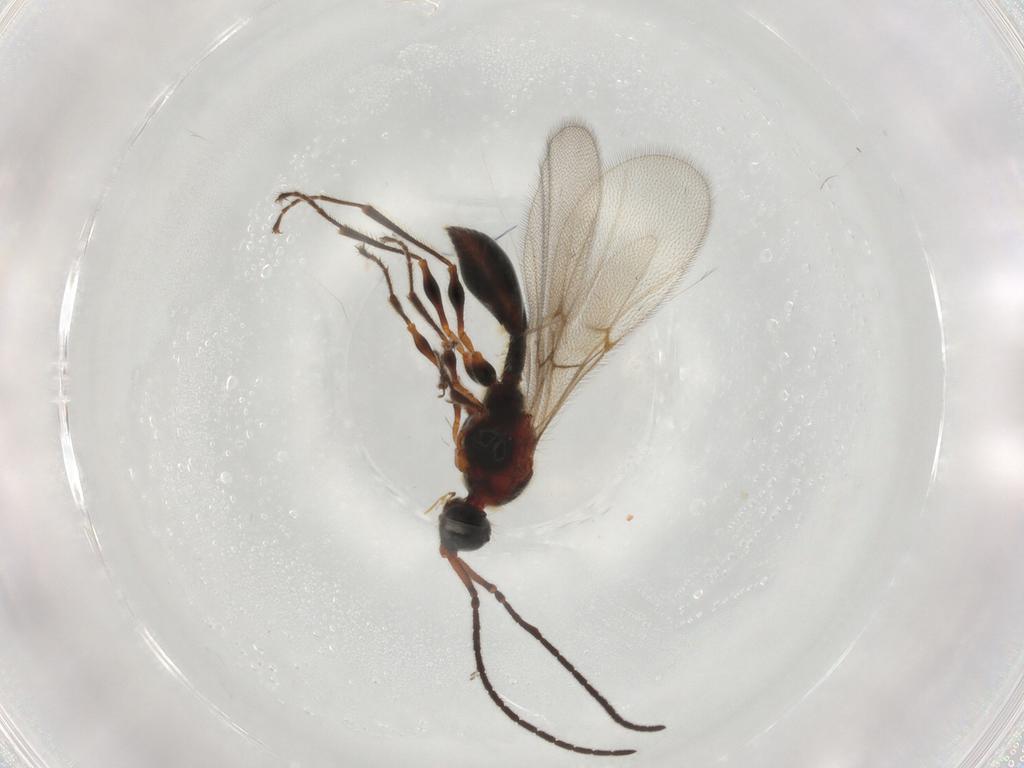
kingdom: Animalia
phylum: Arthropoda
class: Insecta
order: Hymenoptera
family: Diapriidae
